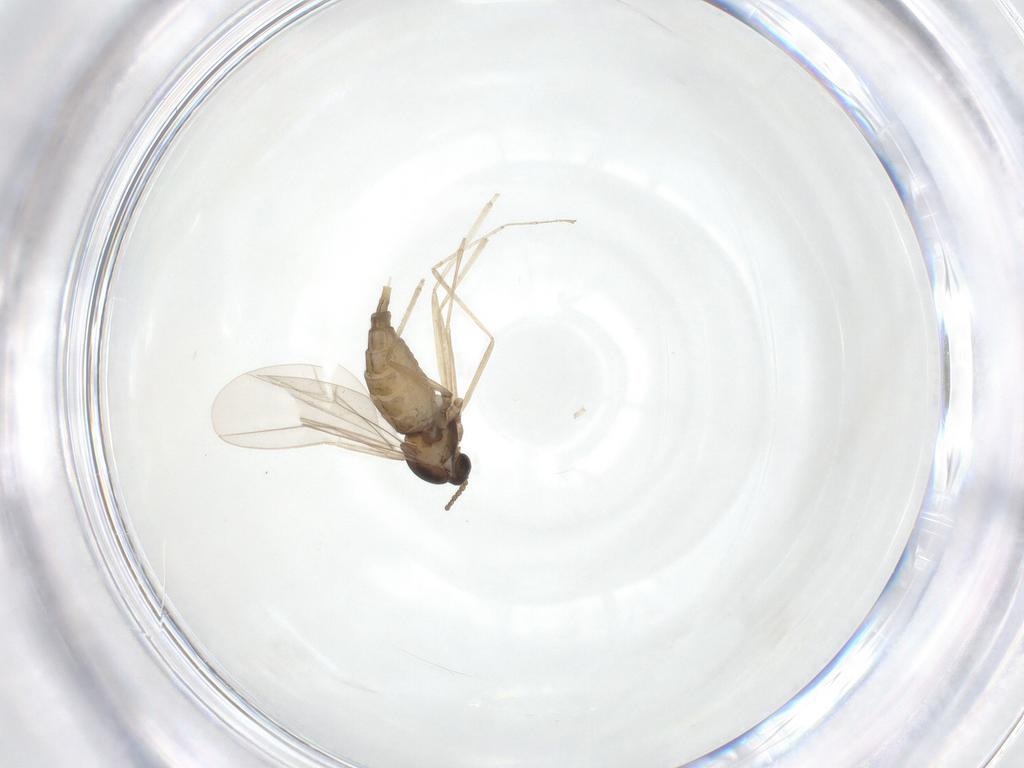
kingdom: Animalia
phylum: Arthropoda
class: Insecta
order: Diptera
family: Cecidomyiidae
